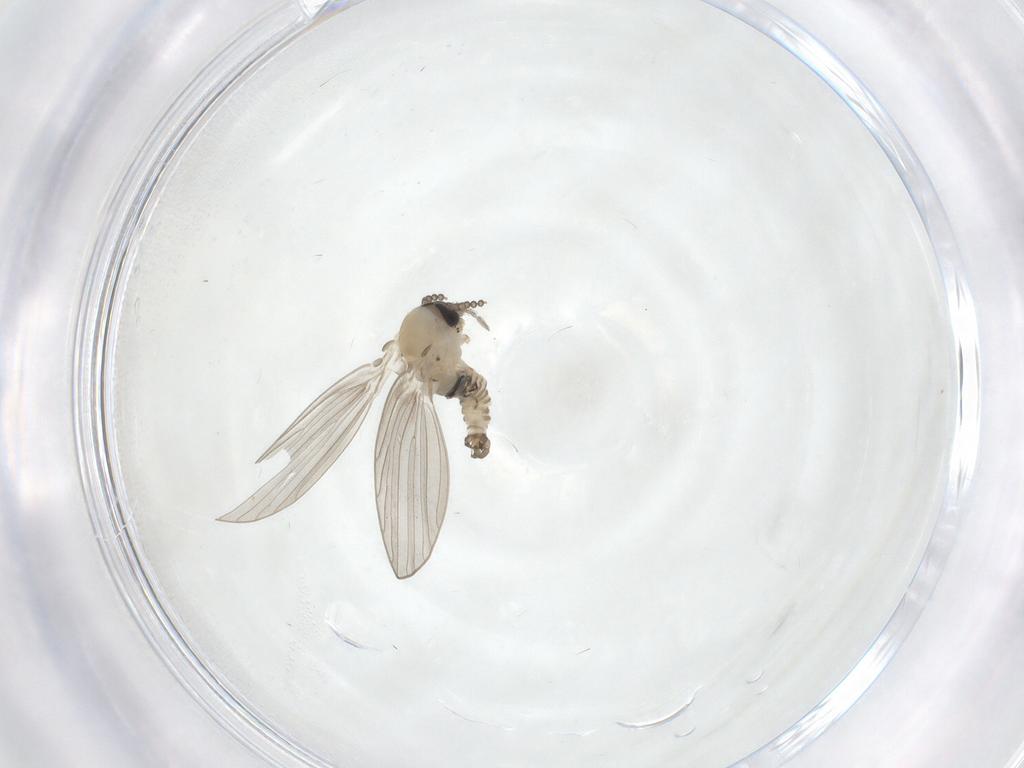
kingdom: Animalia
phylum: Arthropoda
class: Insecta
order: Diptera
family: Psychodidae
